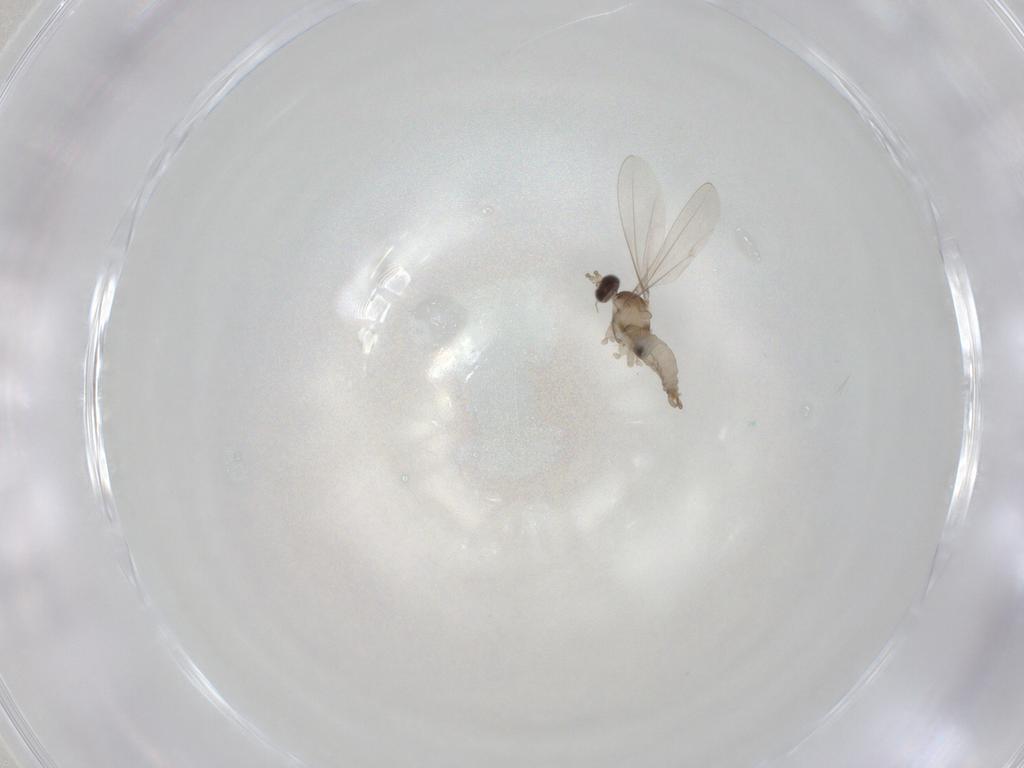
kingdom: Animalia
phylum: Arthropoda
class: Insecta
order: Diptera
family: Cecidomyiidae
